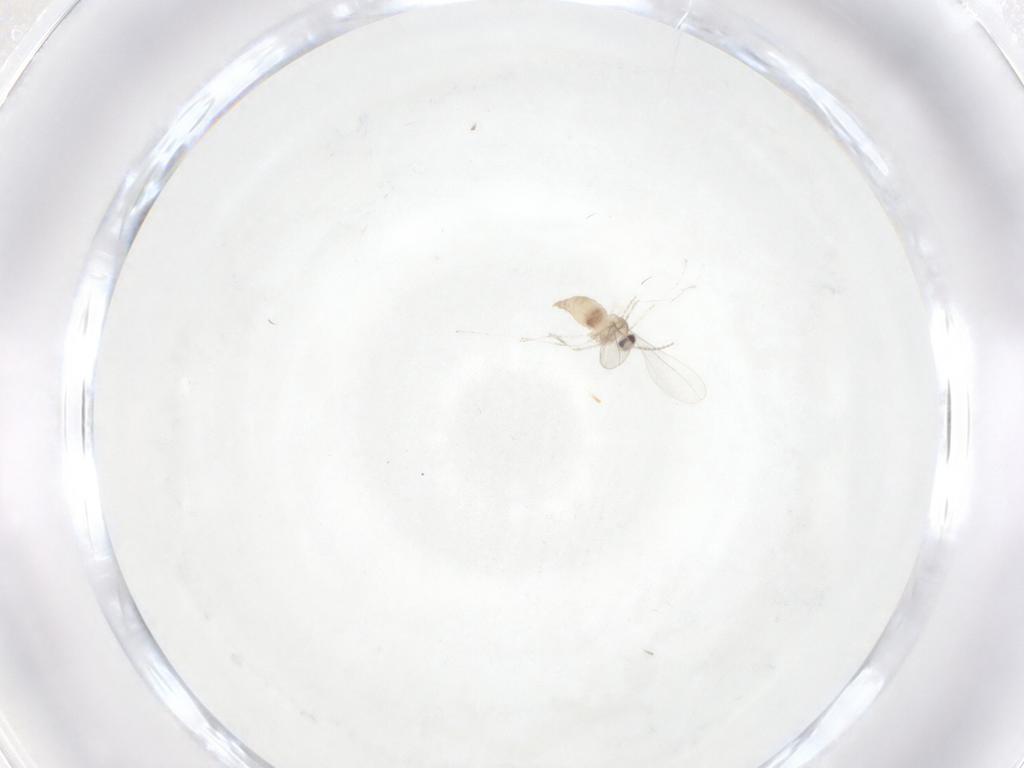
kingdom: Animalia
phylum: Arthropoda
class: Insecta
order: Diptera
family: Cecidomyiidae
